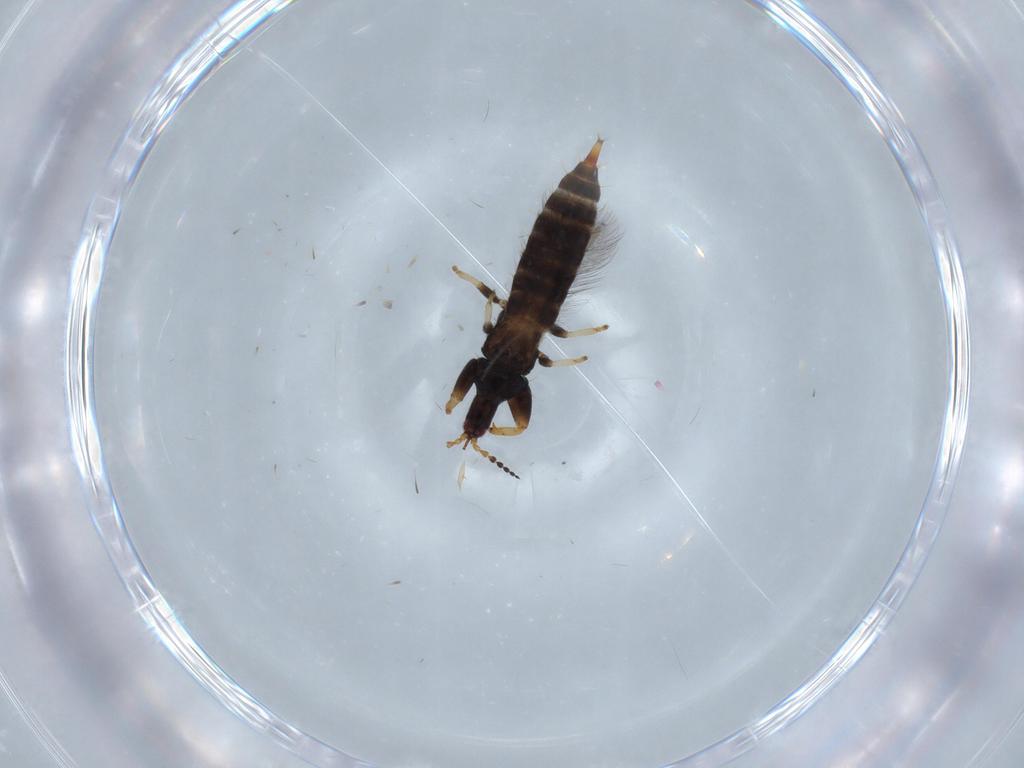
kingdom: Animalia
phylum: Arthropoda
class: Insecta
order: Thysanoptera
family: Phlaeothripidae
